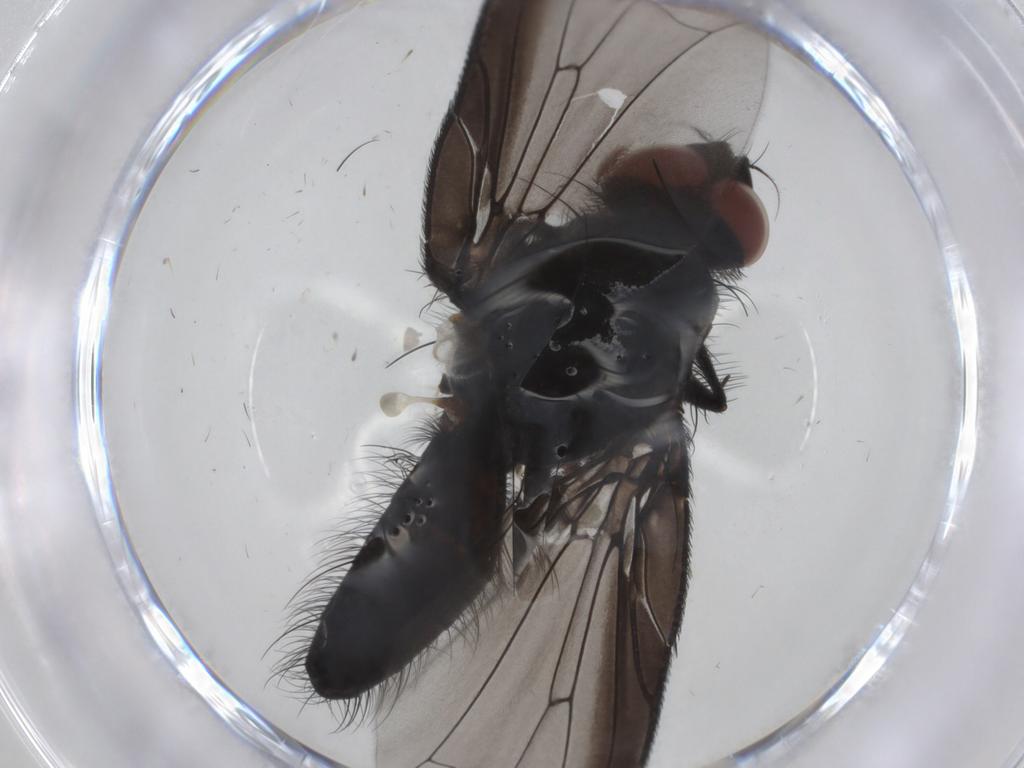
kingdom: Animalia
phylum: Arthropoda
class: Insecta
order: Diptera
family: Anthomyiidae
